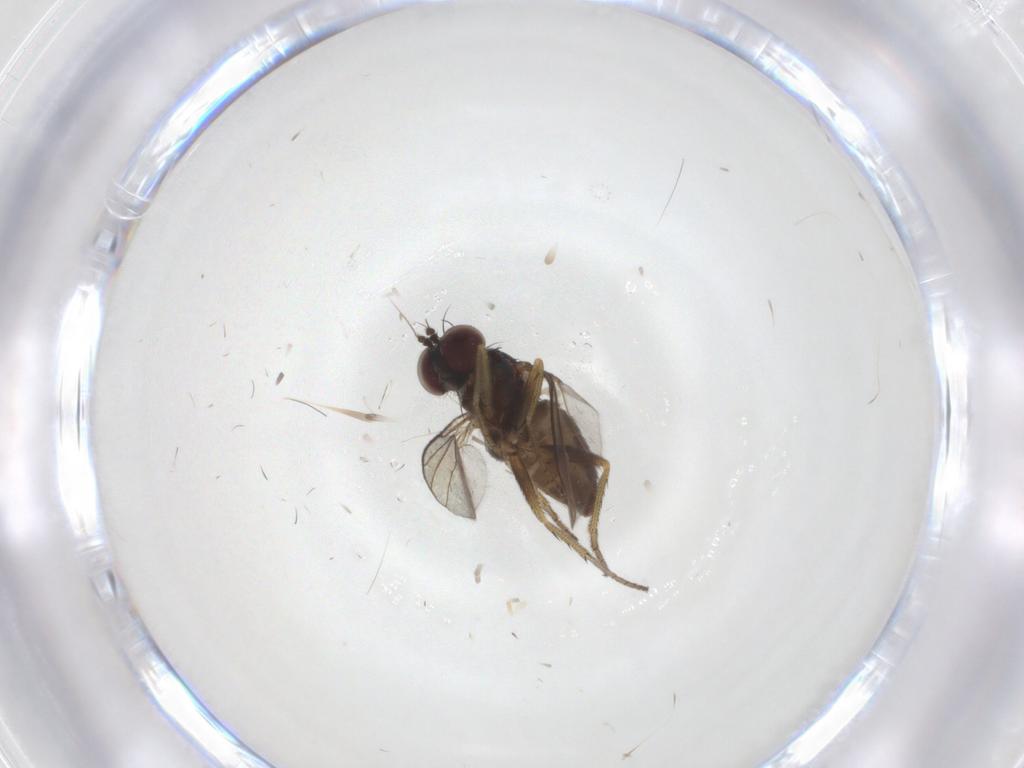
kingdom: Animalia
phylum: Arthropoda
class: Insecta
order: Diptera
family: Dolichopodidae
